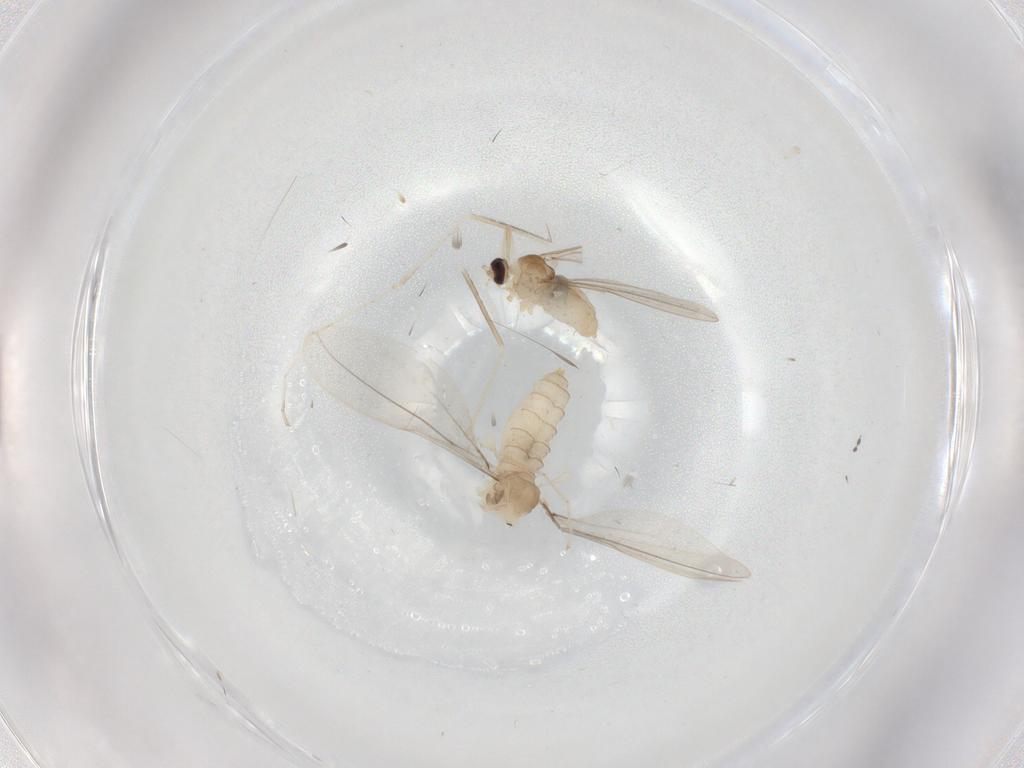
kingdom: Animalia
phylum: Arthropoda
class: Insecta
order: Diptera
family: Cecidomyiidae
